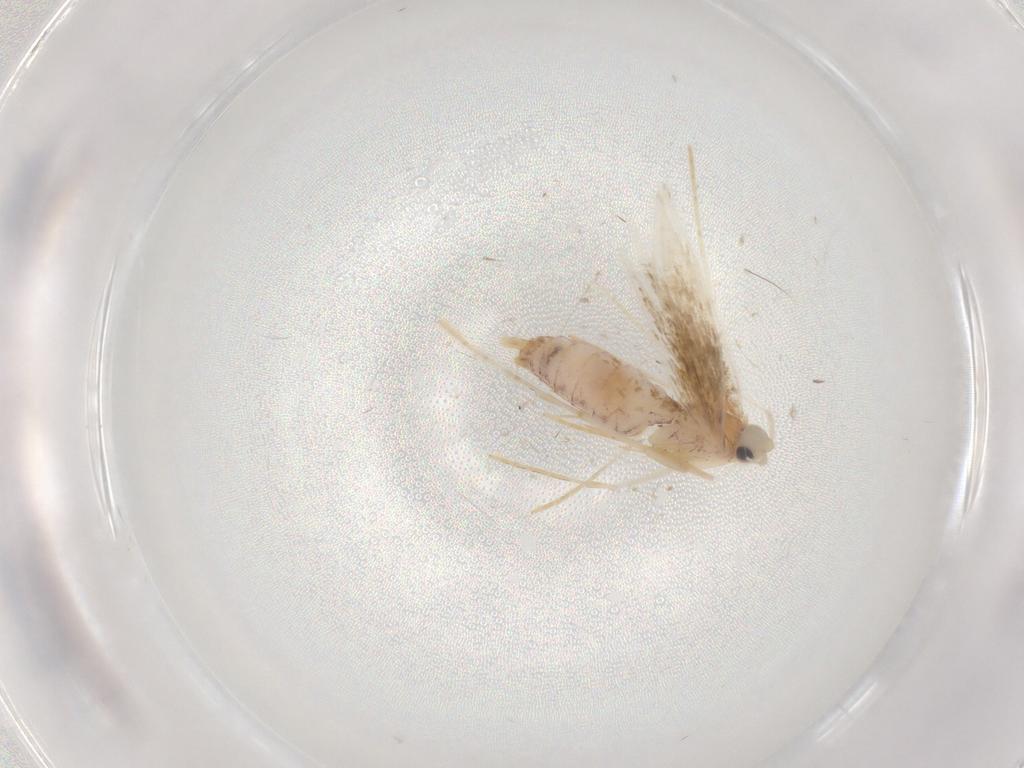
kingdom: Animalia
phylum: Arthropoda
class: Insecta
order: Lepidoptera
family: Lyonetiidae
